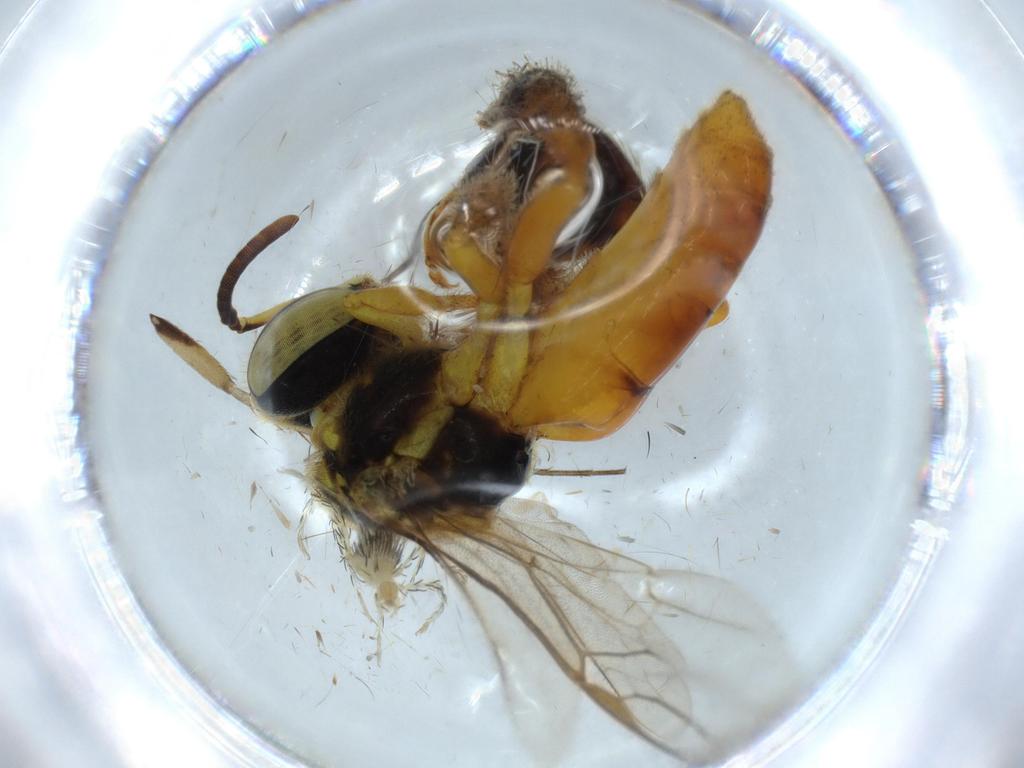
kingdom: Animalia
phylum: Arthropoda
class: Insecta
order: Hymenoptera
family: Apidae
